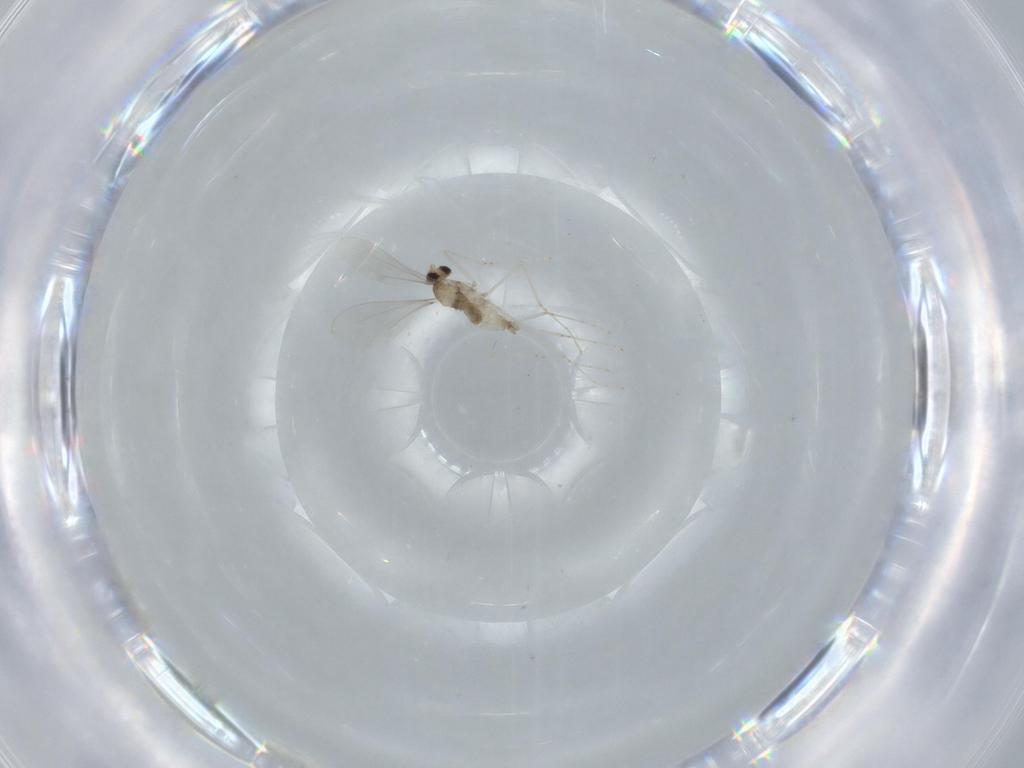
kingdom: Animalia
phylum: Arthropoda
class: Insecta
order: Diptera
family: Cecidomyiidae
